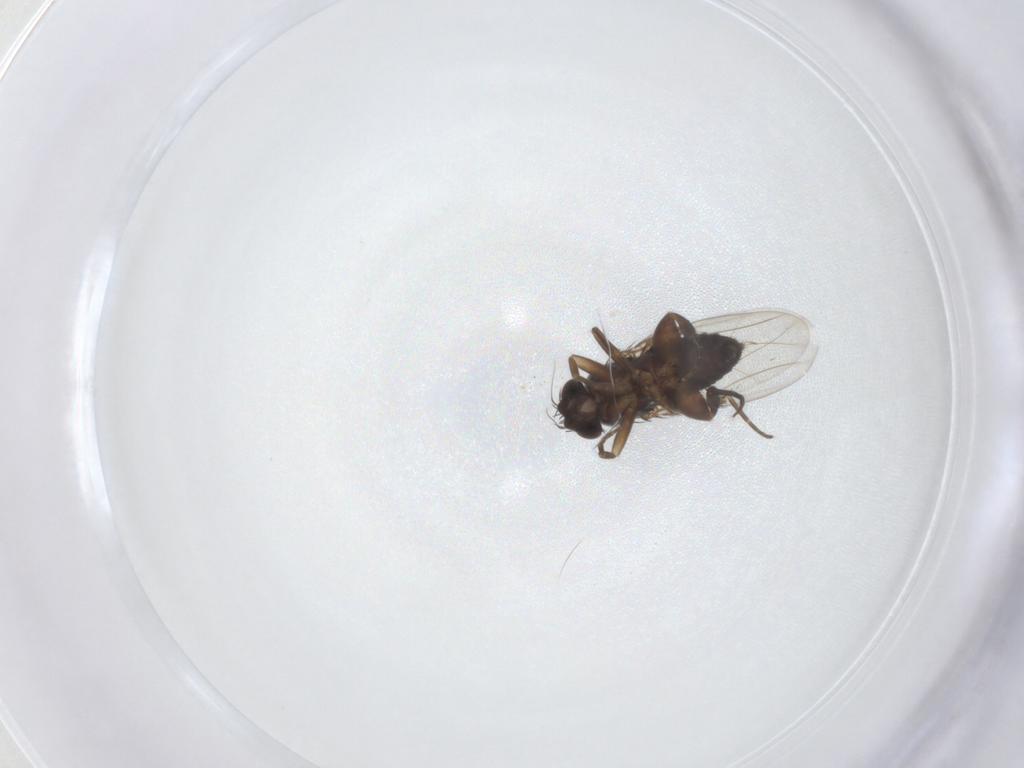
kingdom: Animalia
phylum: Arthropoda
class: Insecta
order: Diptera
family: Phoridae
